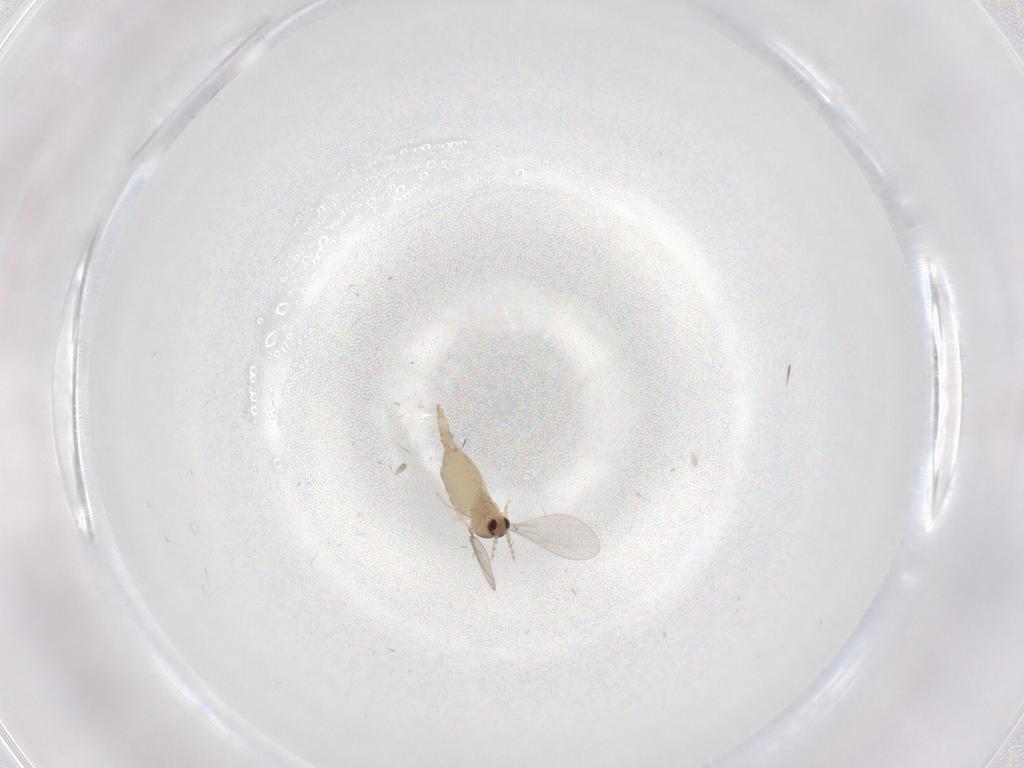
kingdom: Animalia
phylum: Arthropoda
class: Insecta
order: Diptera
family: Cecidomyiidae
